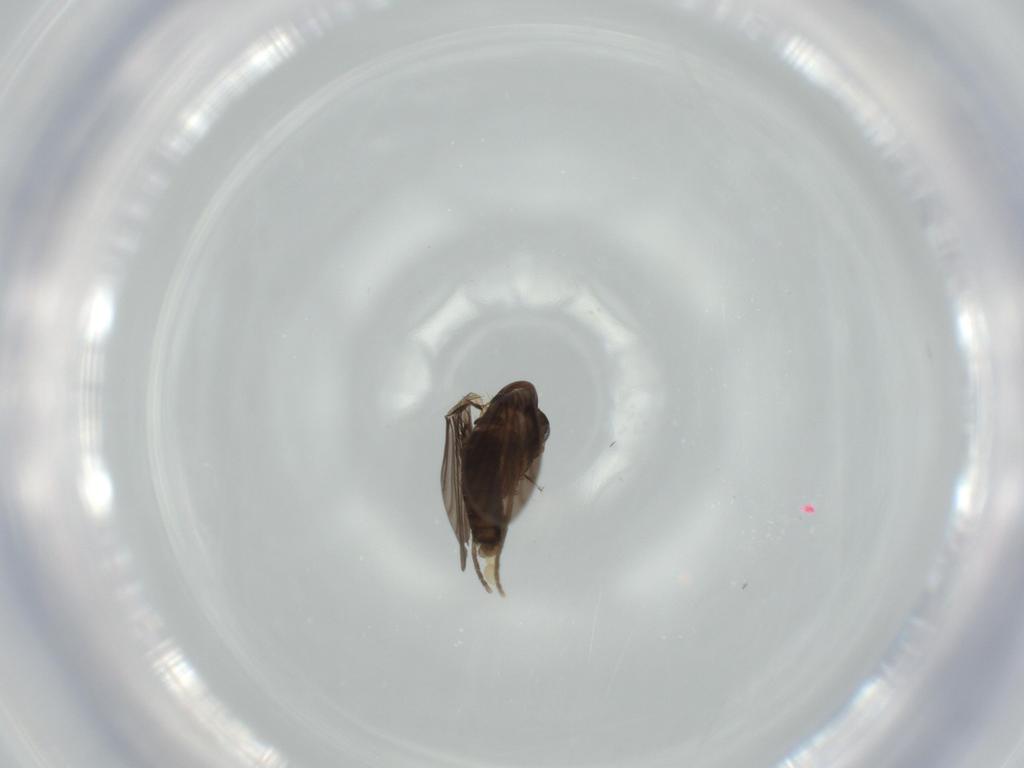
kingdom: Animalia
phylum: Arthropoda
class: Insecta
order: Diptera
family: Psychodidae
